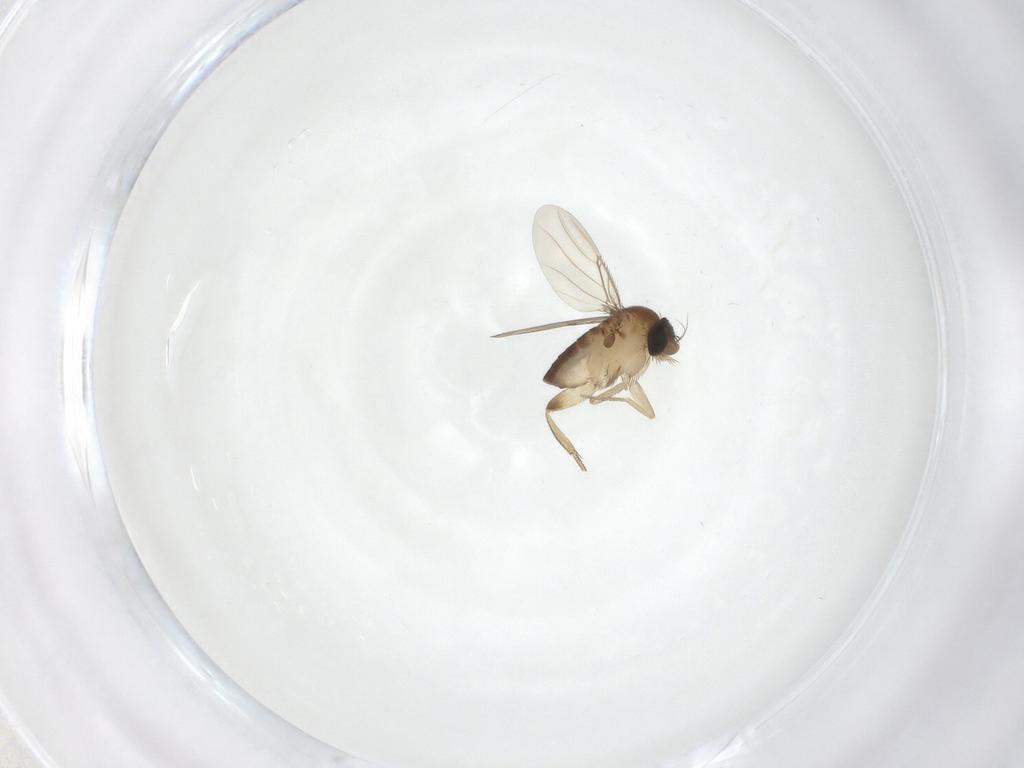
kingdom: Animalia
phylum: Arthropoda
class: Insecta
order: Diptera
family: Phoridae
